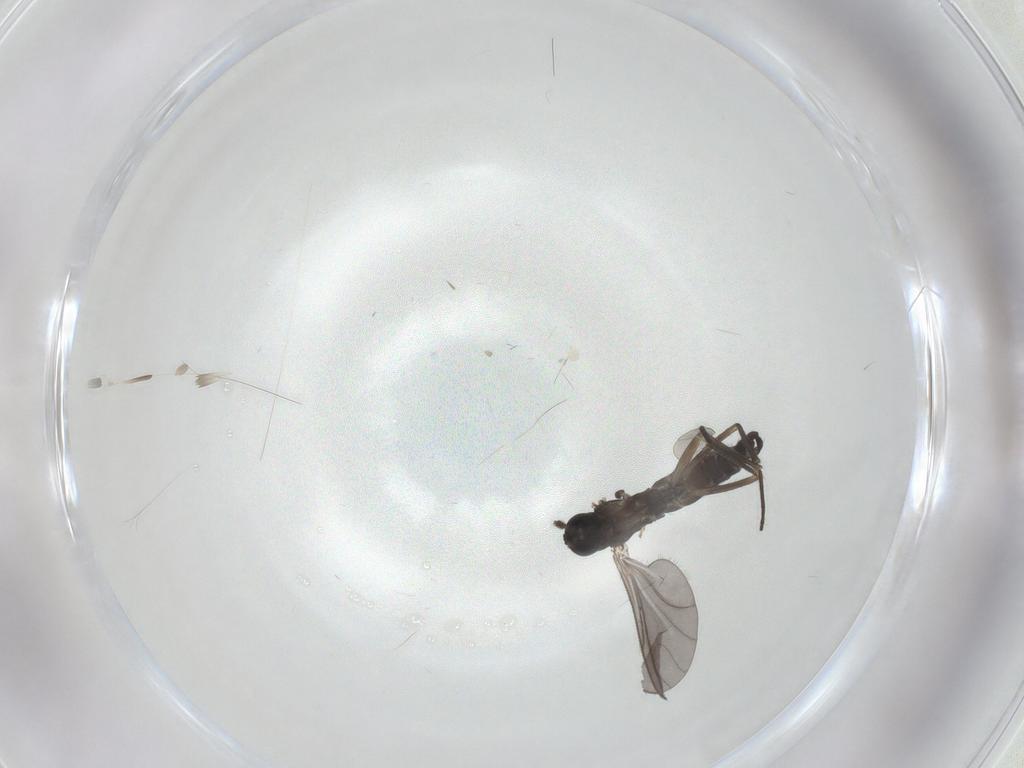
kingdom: Animalia
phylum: Arthropoda
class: Insecta
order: Diptera
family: Sciaridae
